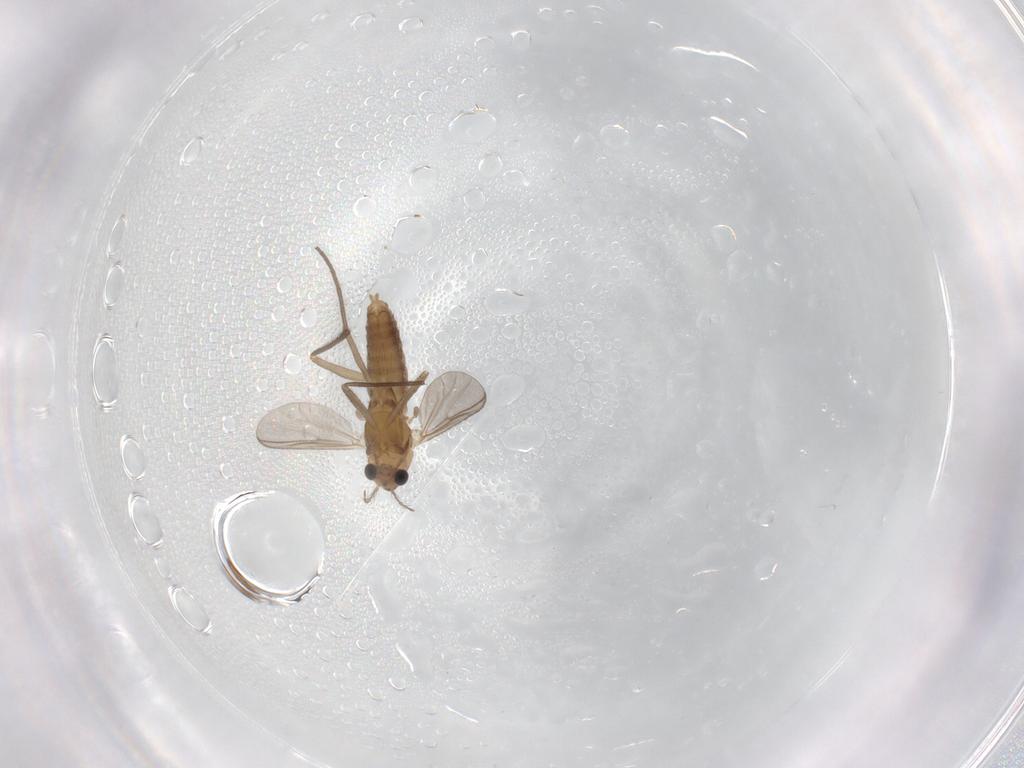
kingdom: Animalia
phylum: Arthropoda
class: Insecta
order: Diptera
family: Chironomidae
